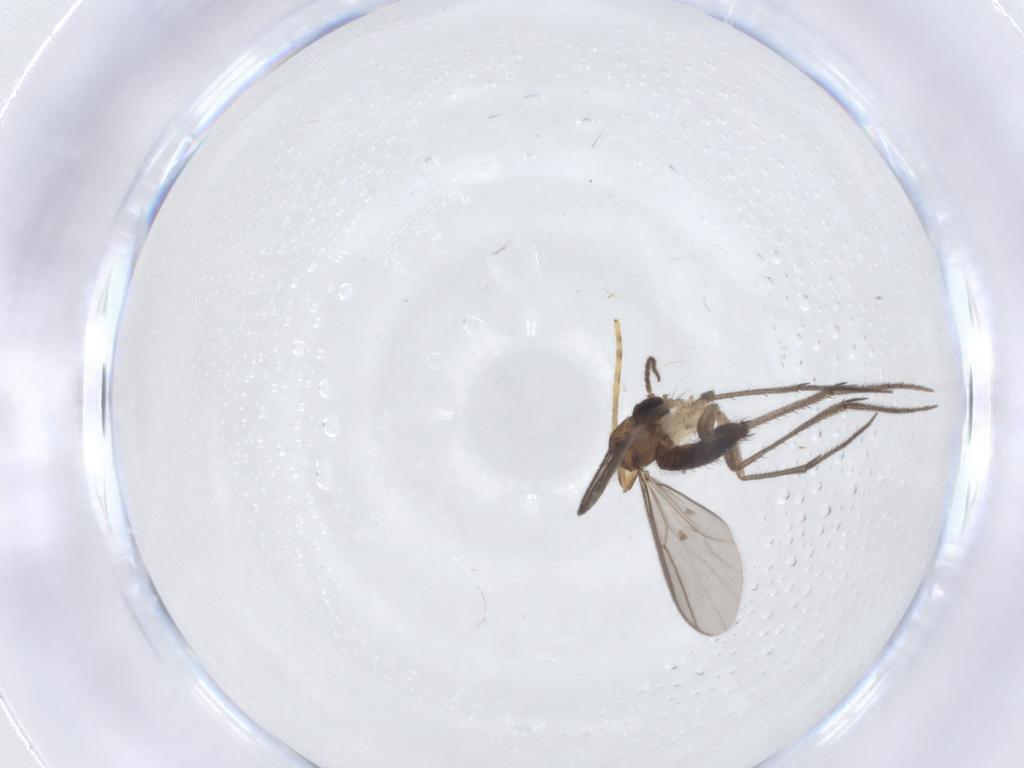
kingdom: Animalia
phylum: Arthropoda
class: Insecta
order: Diptera
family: Mycetophilidae
